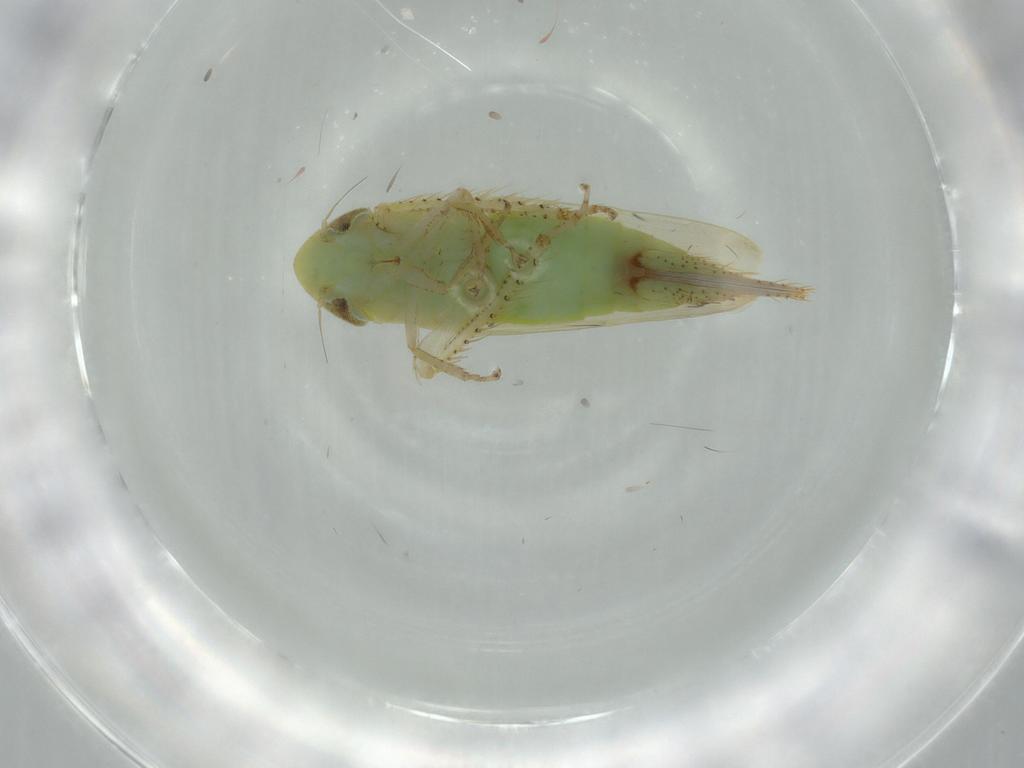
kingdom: Animalia
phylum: Arthropoda
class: Insecta
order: Hemiptera
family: Cicadellidae
